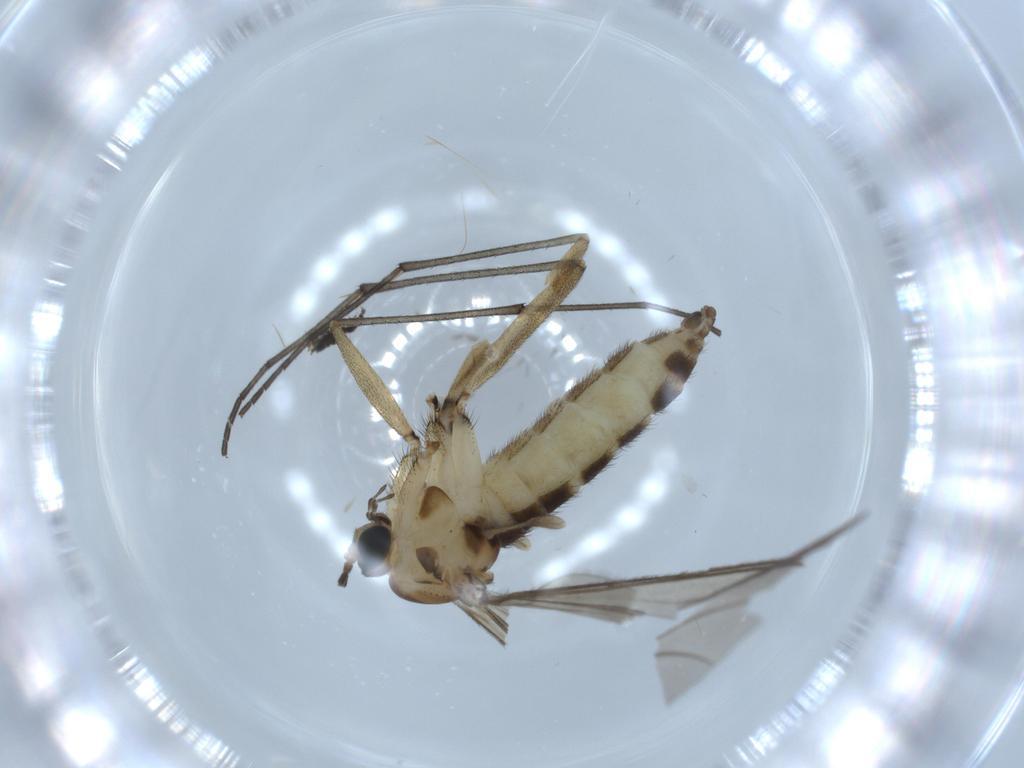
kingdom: Animalia
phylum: Arthropoda
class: Insecta
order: Diptera
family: Sciaridae
